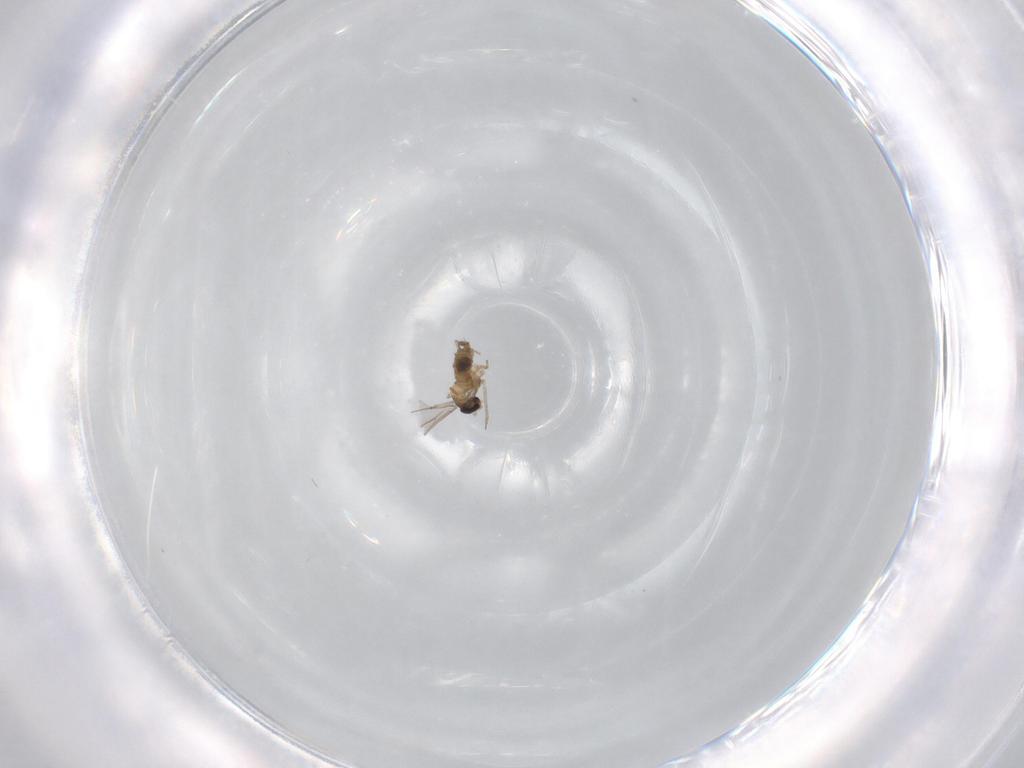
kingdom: Animalia
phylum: Arthropoda
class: Insecta
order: Diptera
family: Cecidomyiidae
